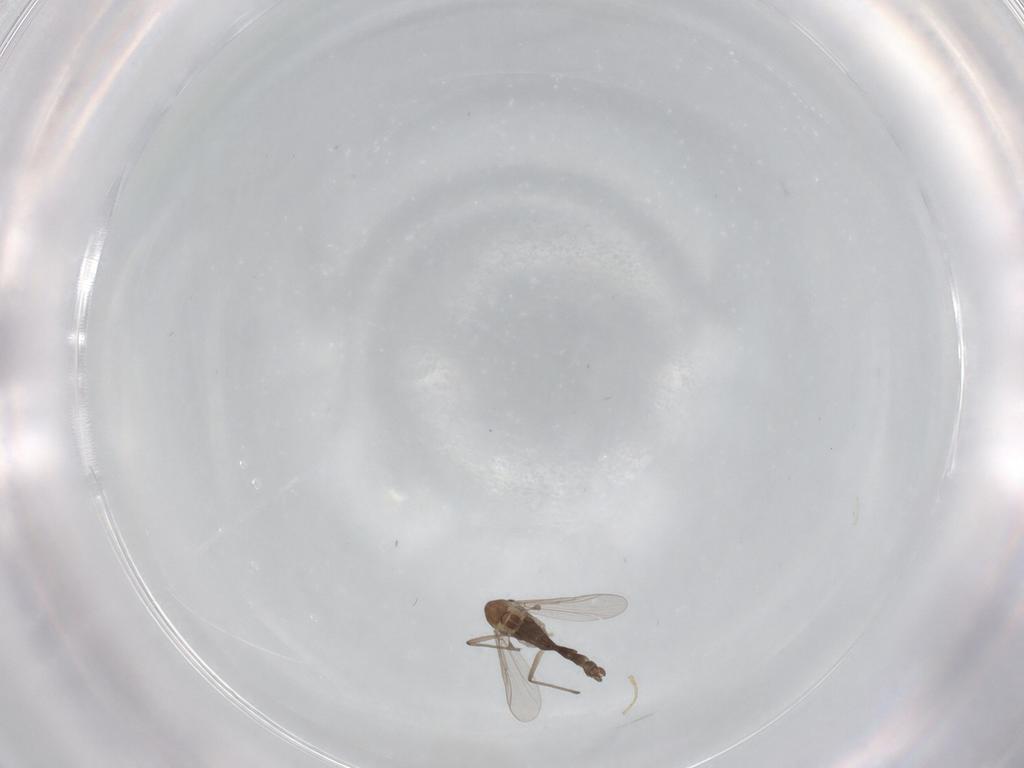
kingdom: Animalia
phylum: Arthropoda
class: Insecta
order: Diptera
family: Chironomidae
